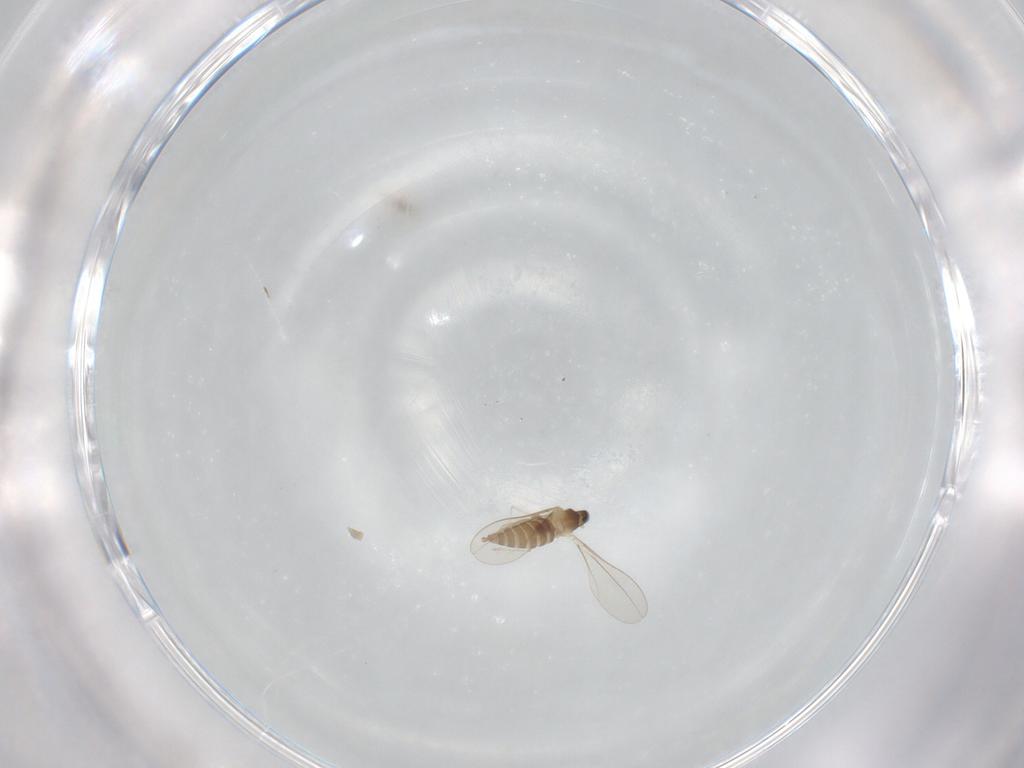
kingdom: Animalia
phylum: Arthropoda
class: Insecta
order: Diptera
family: Cecidomyiidae
